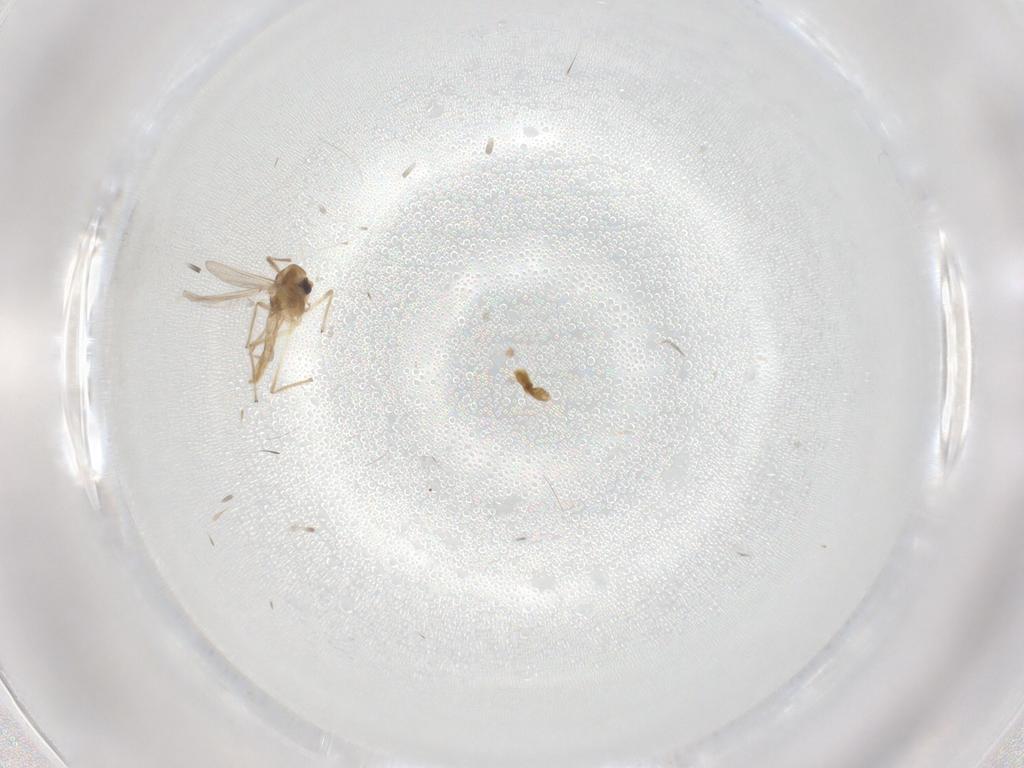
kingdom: Animalia
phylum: Arthropoda
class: Insecta
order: Diptera
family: Chironomidae
